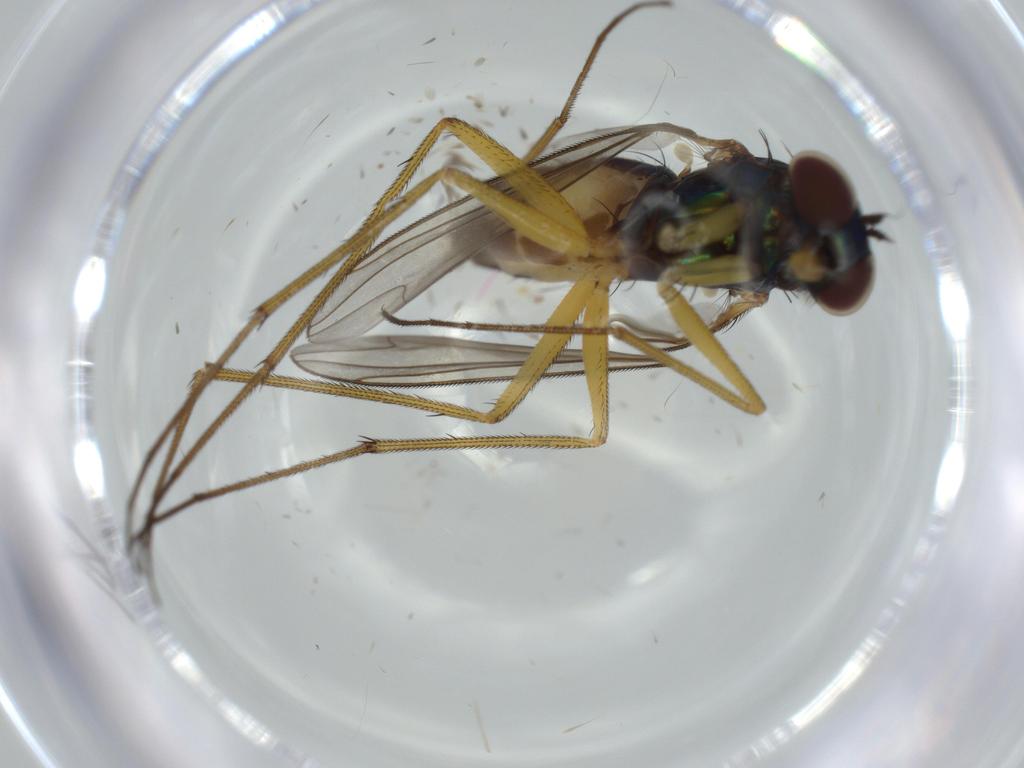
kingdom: Animalia
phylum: Arthropoda
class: Insecta
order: Diptera
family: Dolichopodidae
